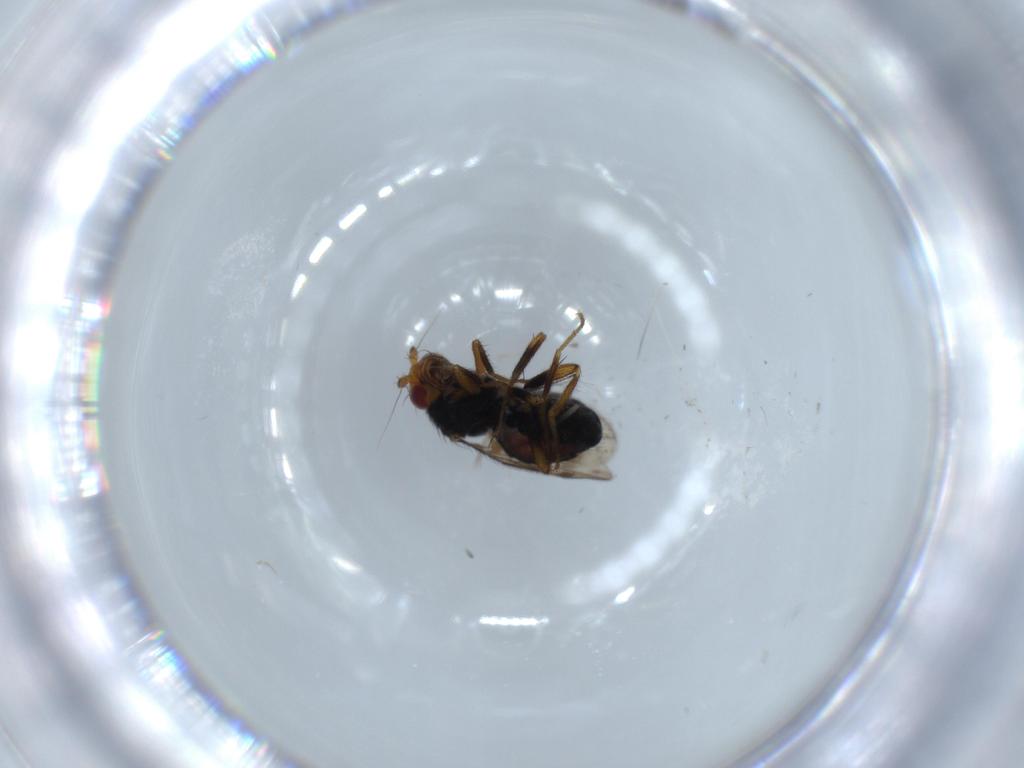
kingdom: Animalia
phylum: Arthropoda
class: Insecta
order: Diptera
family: Sphaeroceridae
